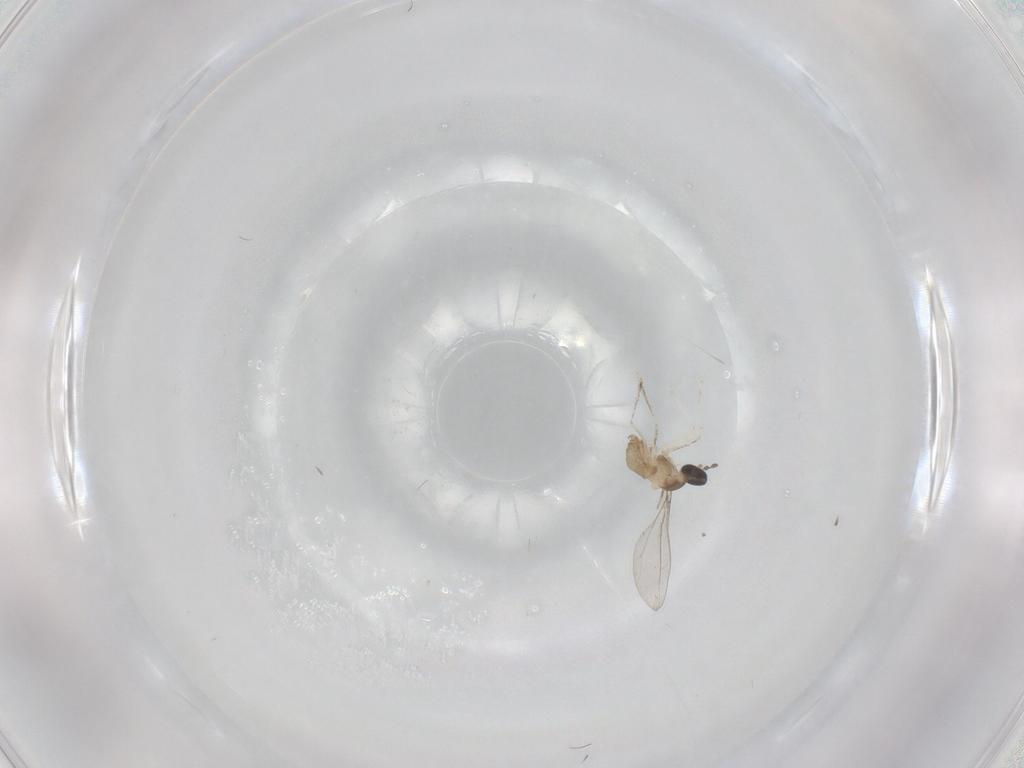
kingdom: Animalia
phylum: Arthropoda
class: Insecta
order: Diptera
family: Cecidomyiidae
